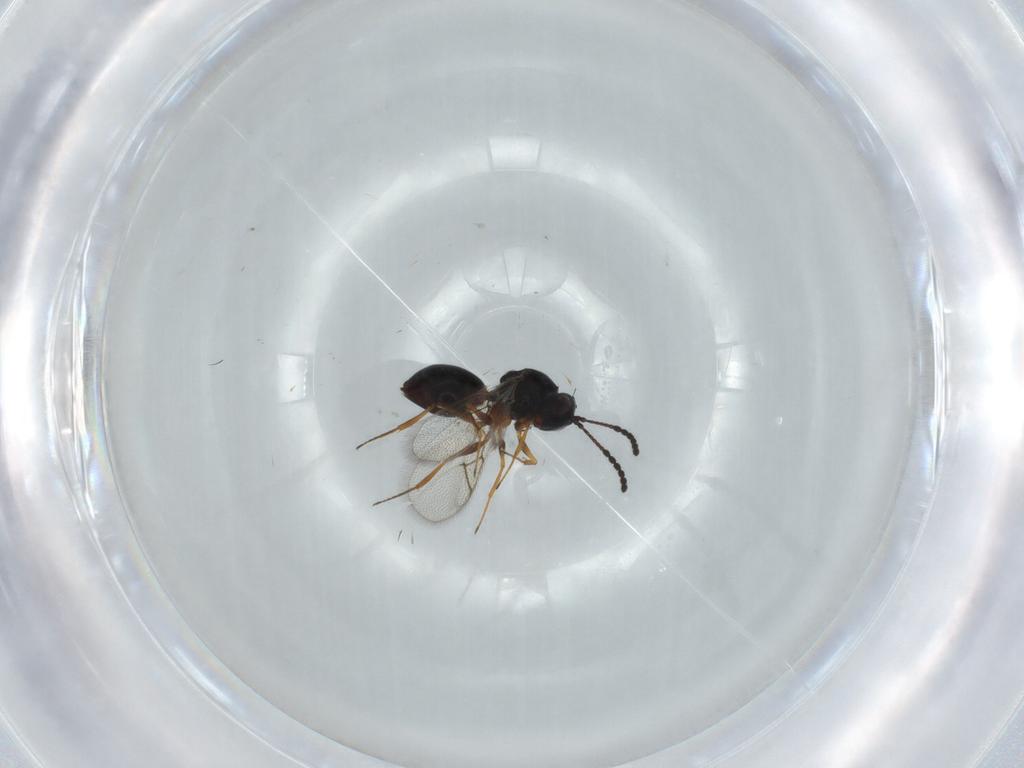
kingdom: Animalia
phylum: Arthropoda
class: Insecta
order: Hymenoptera
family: Figitidae
